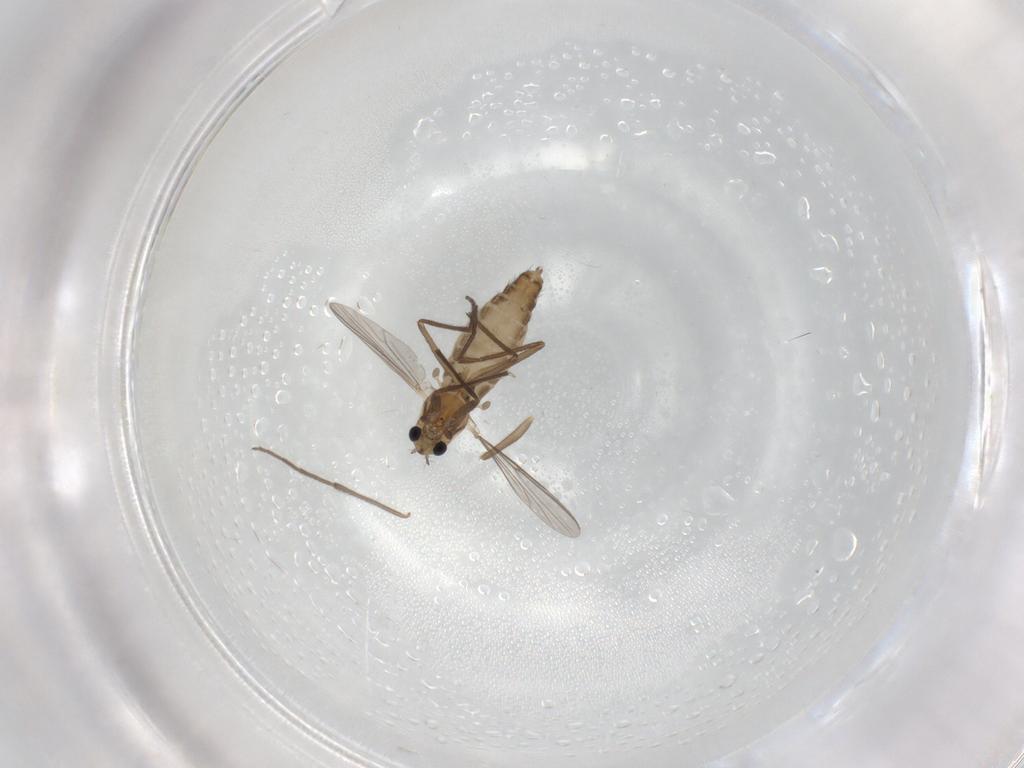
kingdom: Animalia
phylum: Arthropoda
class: Insecta
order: Diptera
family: Chironomidae
